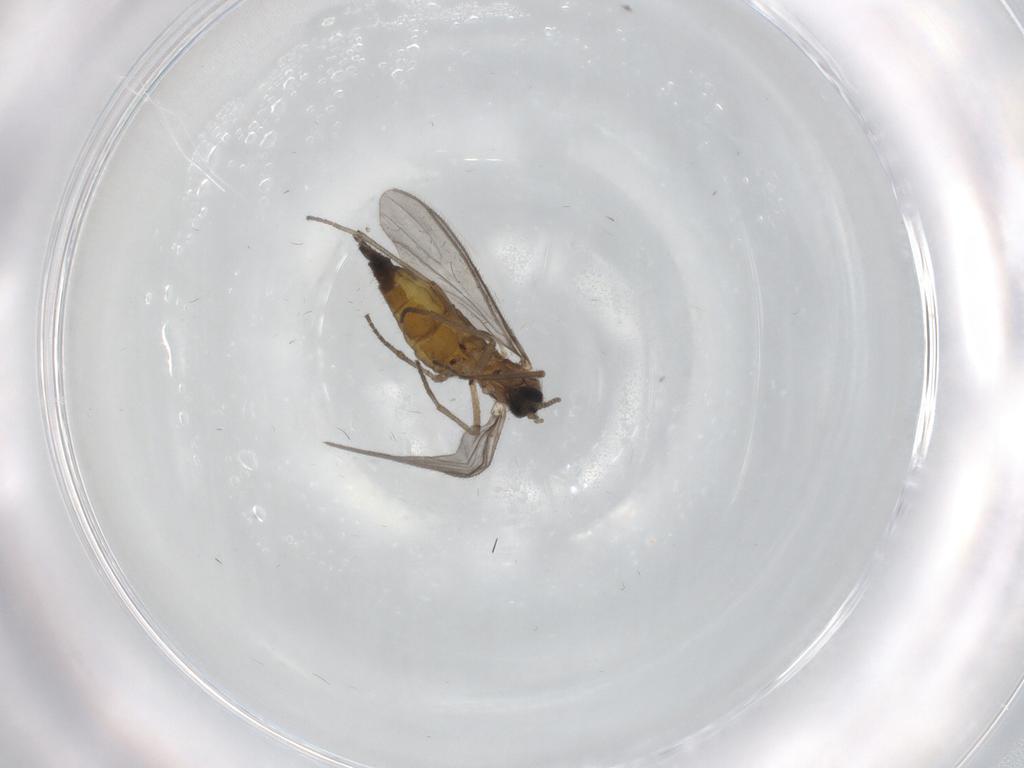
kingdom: Animalia
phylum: Arthropoda
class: Insecta
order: Diptera
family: Sciaridae
